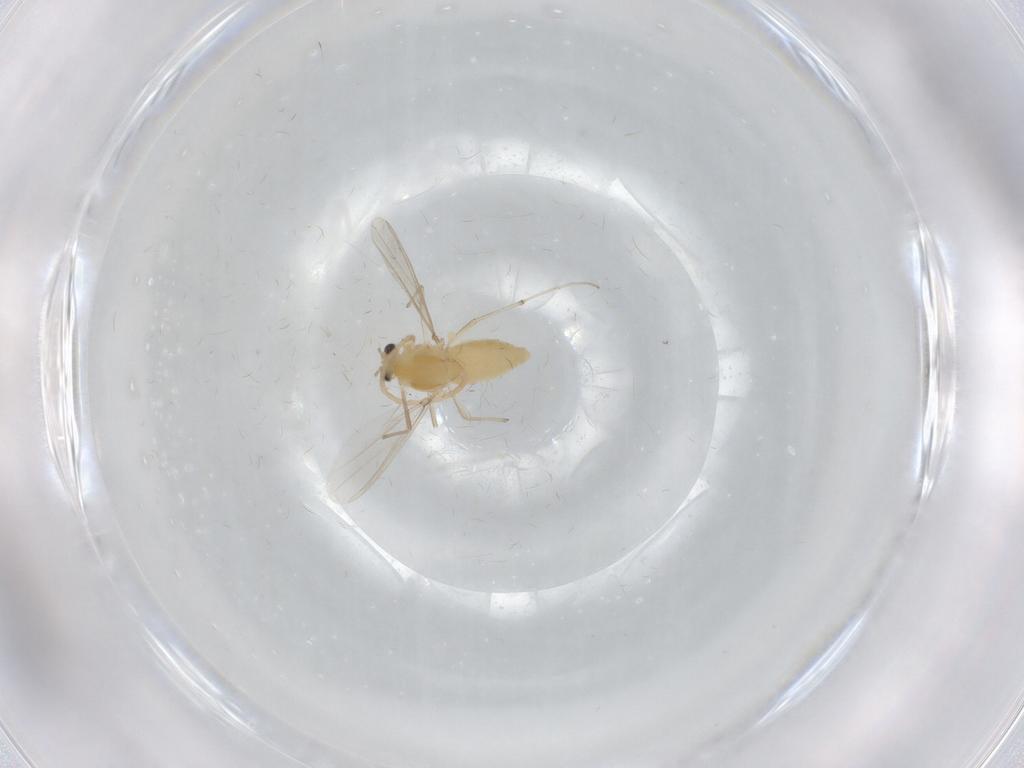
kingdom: Animalia
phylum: Arthropoda
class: Insecta
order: Diptera
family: Chironomidae
